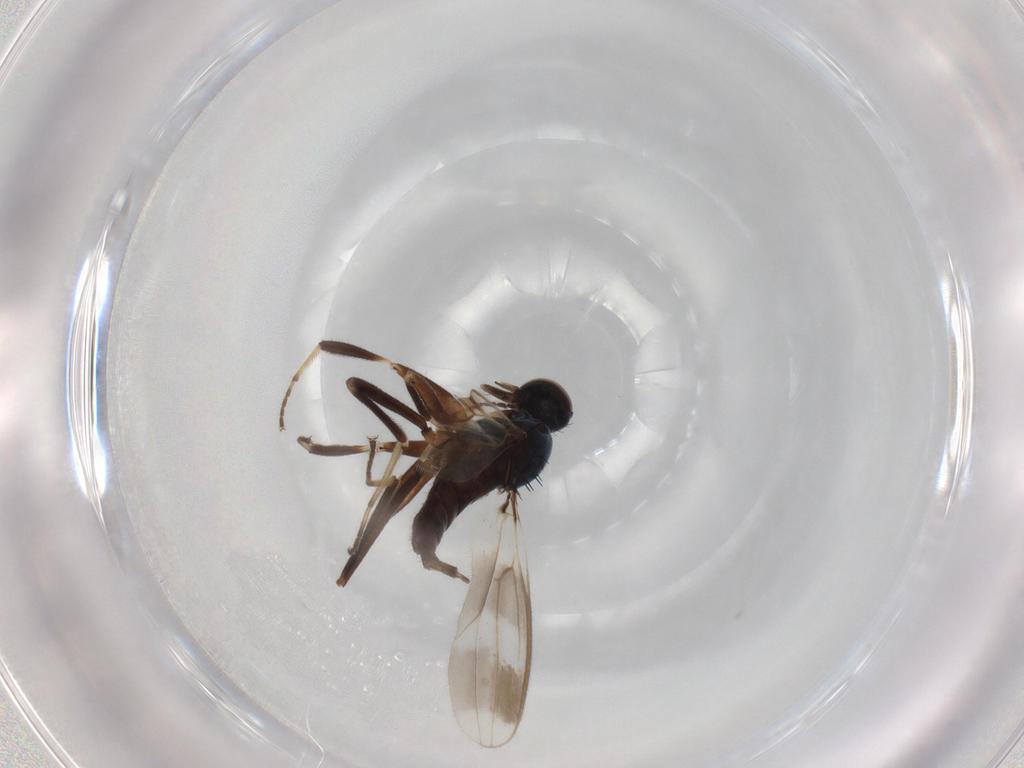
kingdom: Animalia
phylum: Arthropoda
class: Insecta
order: Diptera
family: Hybotidae
